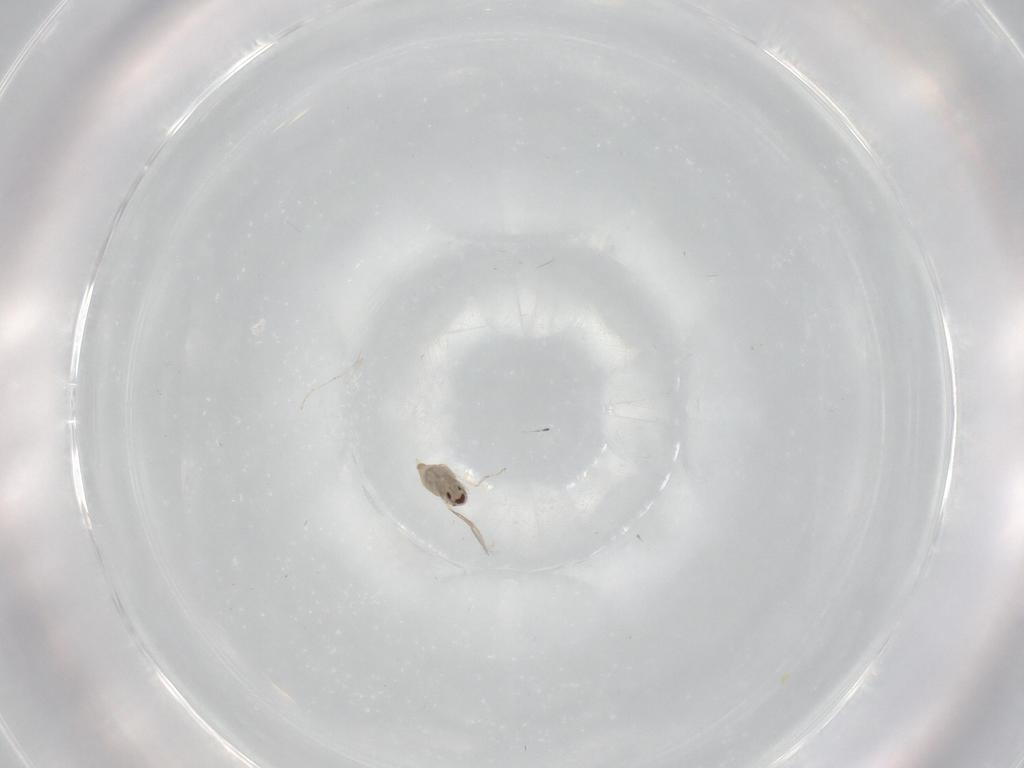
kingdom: Animalia
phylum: Arthropoda
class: Insecta
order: Diptera
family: Cecidomyiidae
